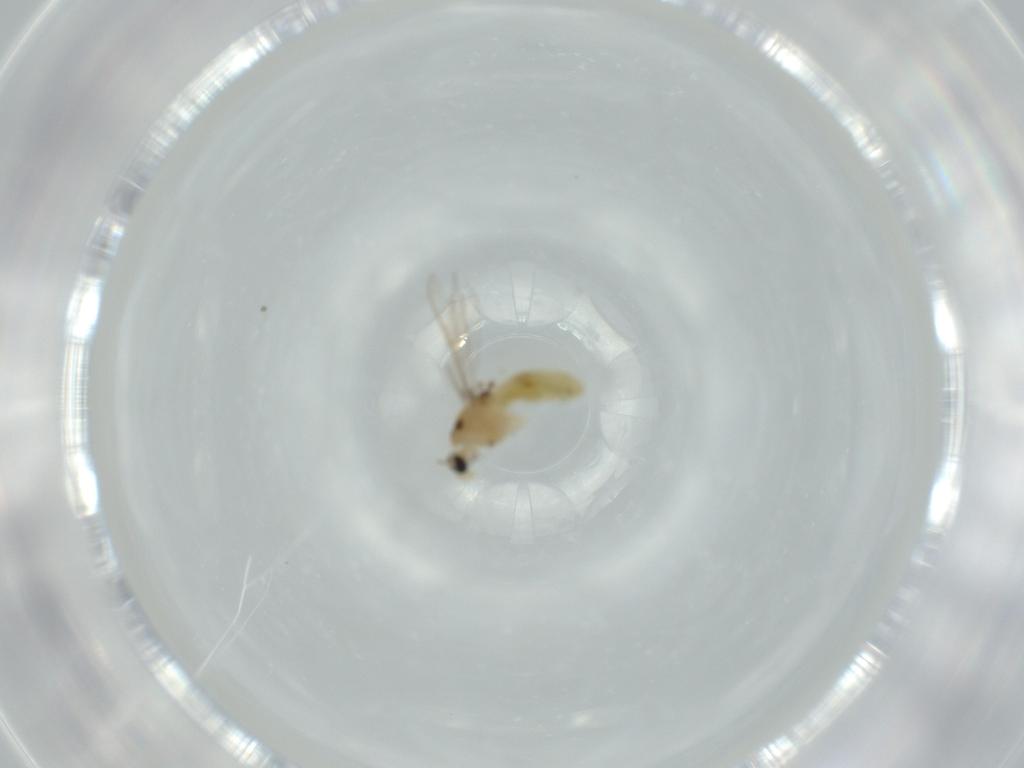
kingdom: Animalia
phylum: Arthropoda
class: Insecta
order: Diptera
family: Chironomidae
